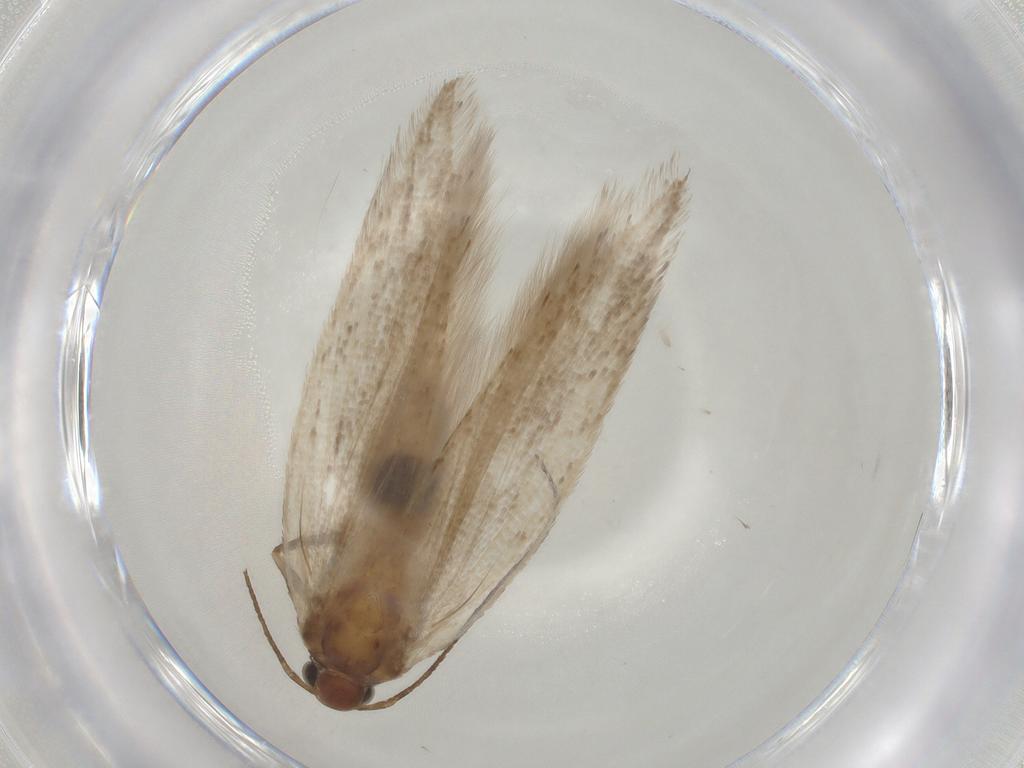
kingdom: Animalia
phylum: Arthropoda
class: Insecta
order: Lepidoptera
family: Gelechiidae
